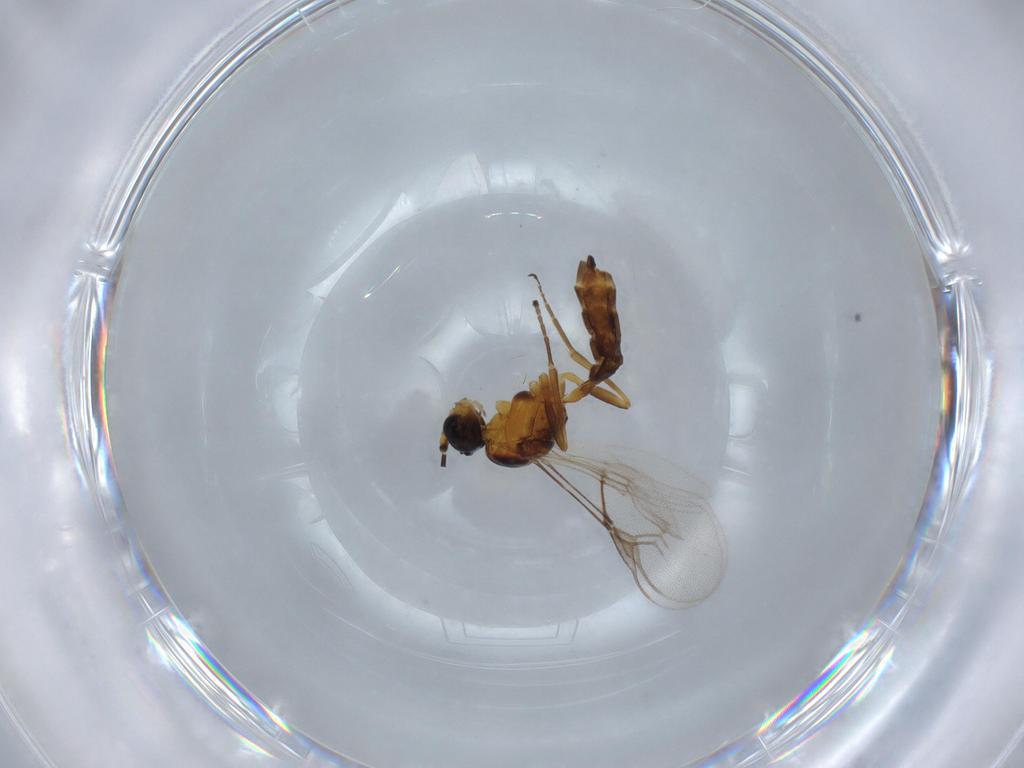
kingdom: Animalia
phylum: Arthropoda
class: Insecta
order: Hymenoptera
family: Braconidae
